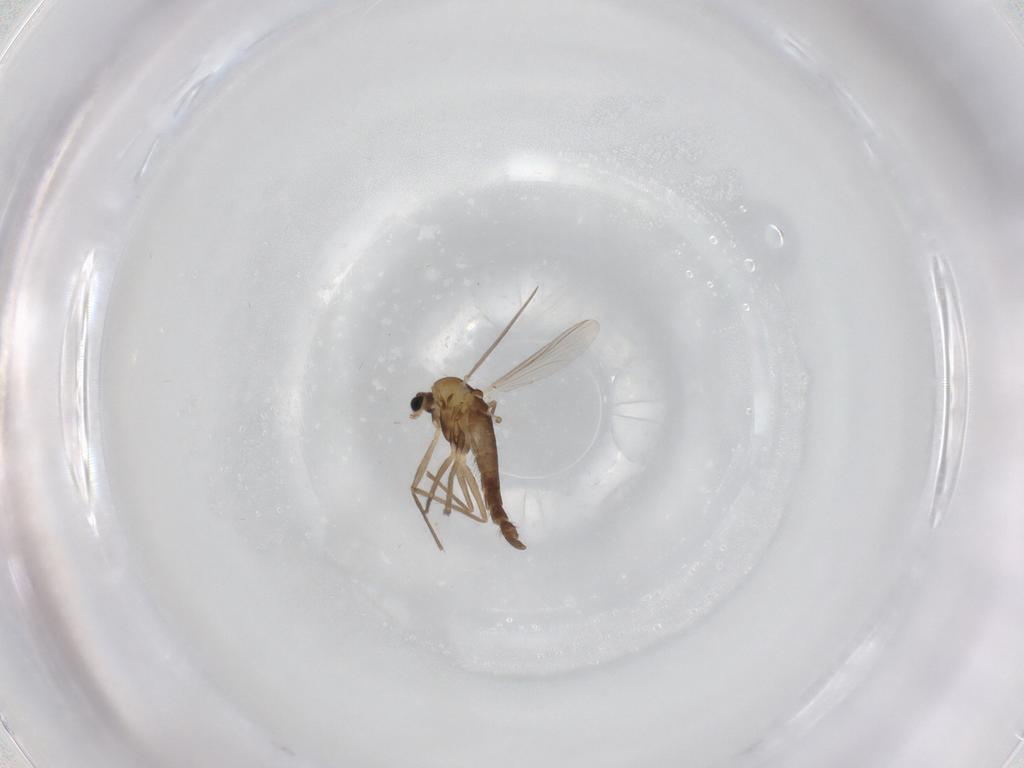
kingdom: Animalia
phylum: Arthropoda
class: Insecta
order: Diptera
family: Chironomidae
